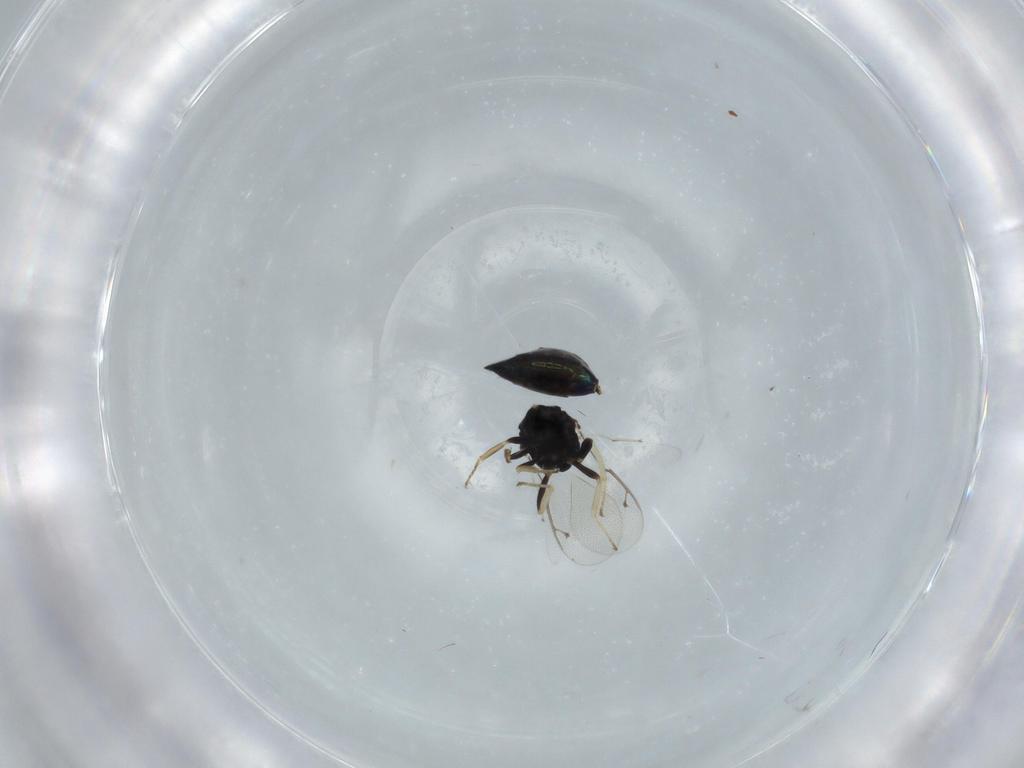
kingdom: Animalia
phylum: Arthropoda
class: Insecta
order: Hymenoptera
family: Pteromalidae
